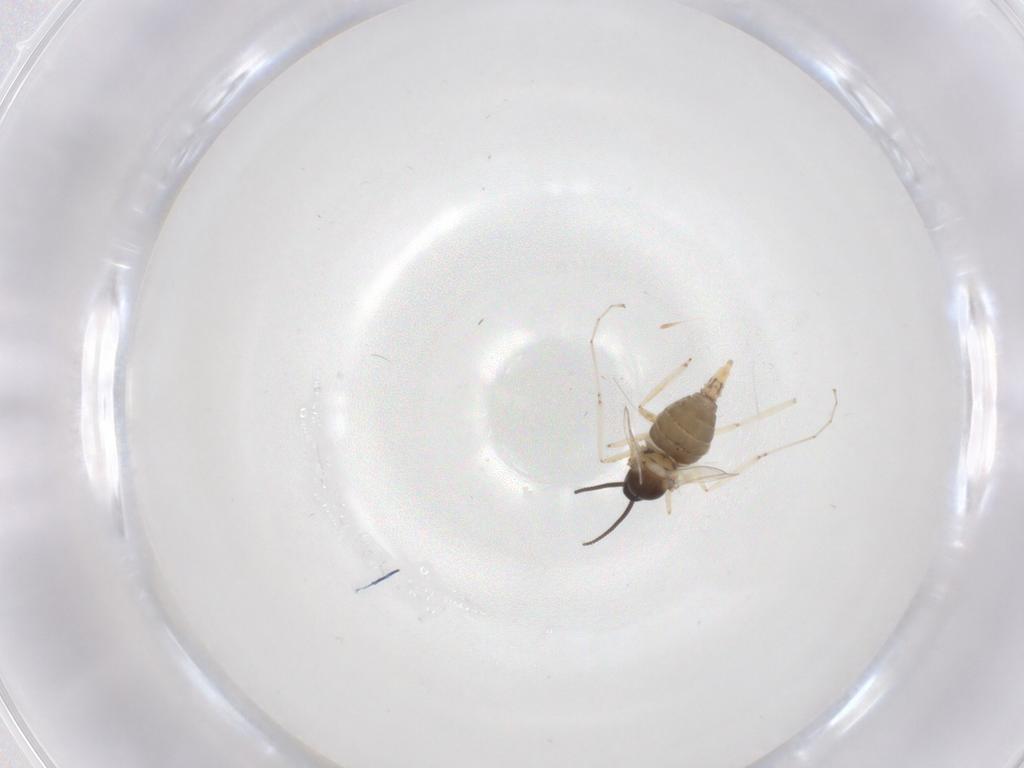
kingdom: Animalia
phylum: Arthropoda
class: Insecta
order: Diptera
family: Cecidomyiidae
